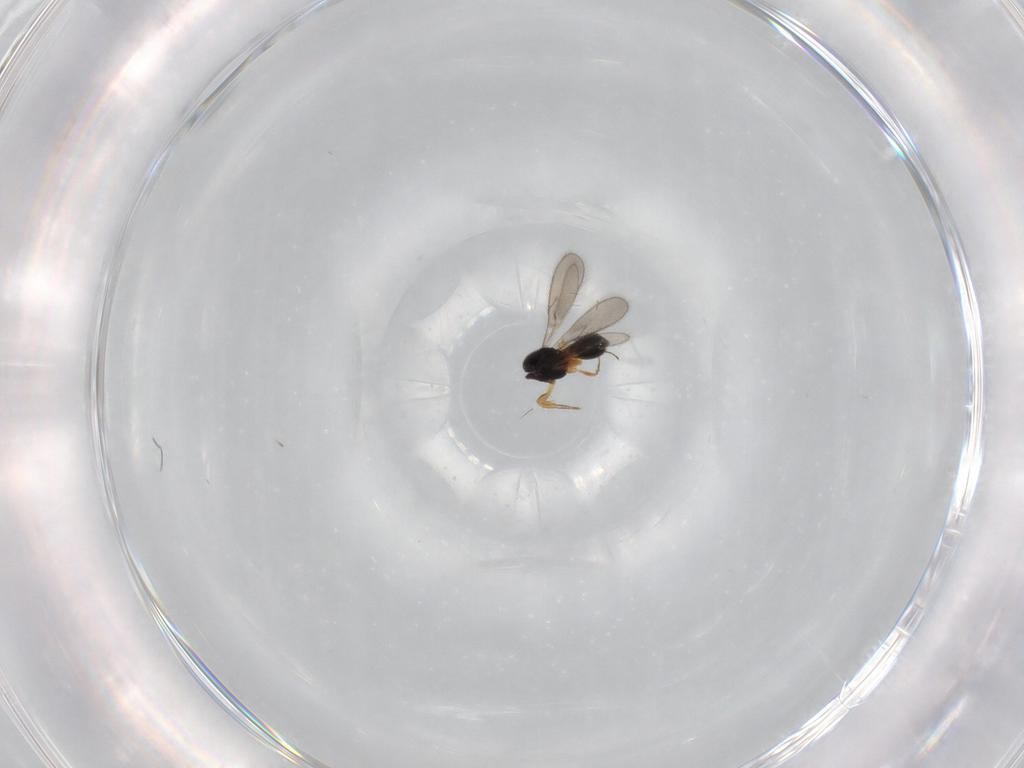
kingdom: Animalia
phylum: Arthropoda
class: Insecta
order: Hymenoptera
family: Scelionidae
